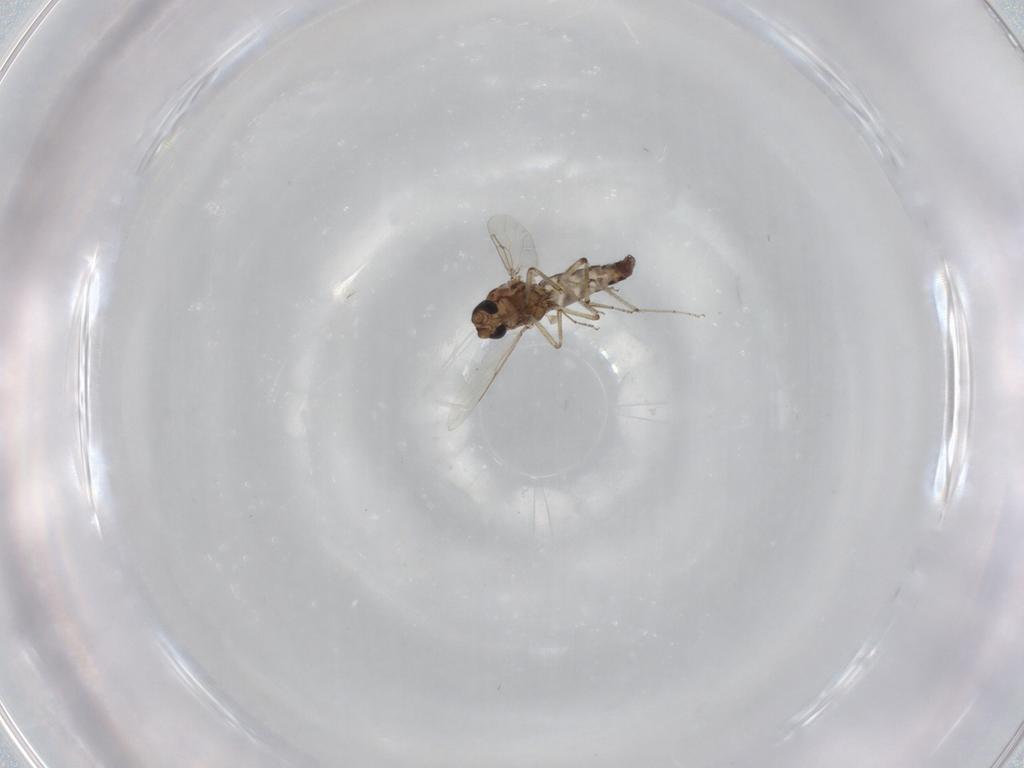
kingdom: Animalia
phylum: Arthropoda
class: Insecta
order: Diptera
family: Ceratopogonidae
